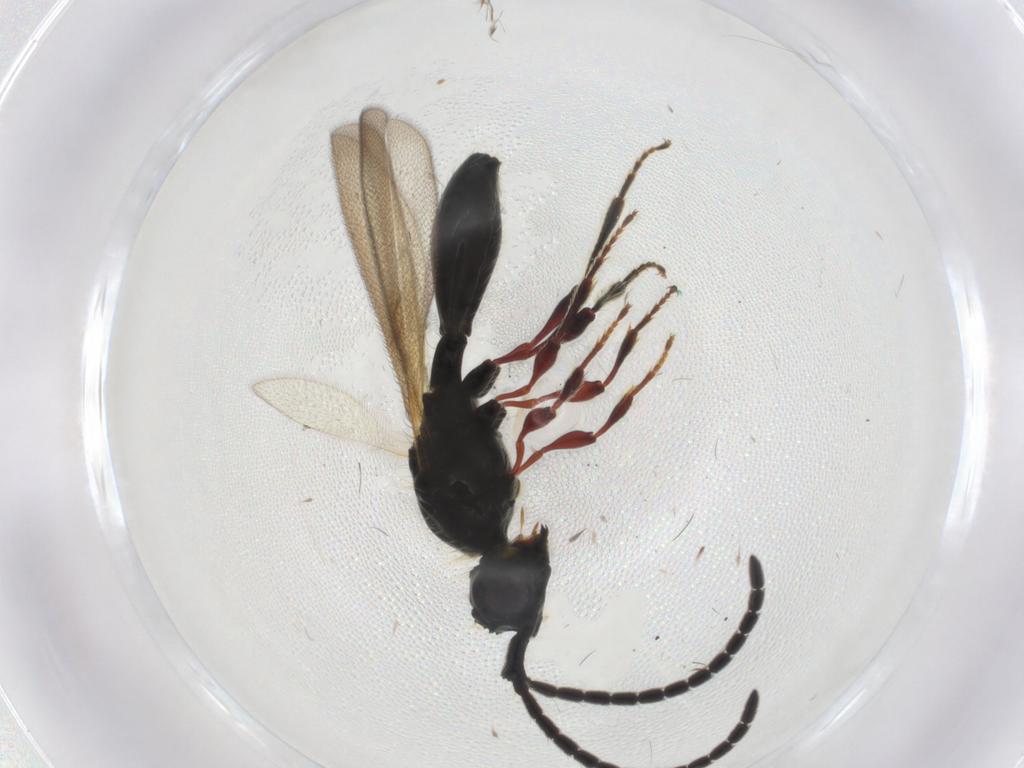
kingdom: Animalia
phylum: Arthropoda
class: Insecta
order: Hymenoptera
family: Diapriidae
